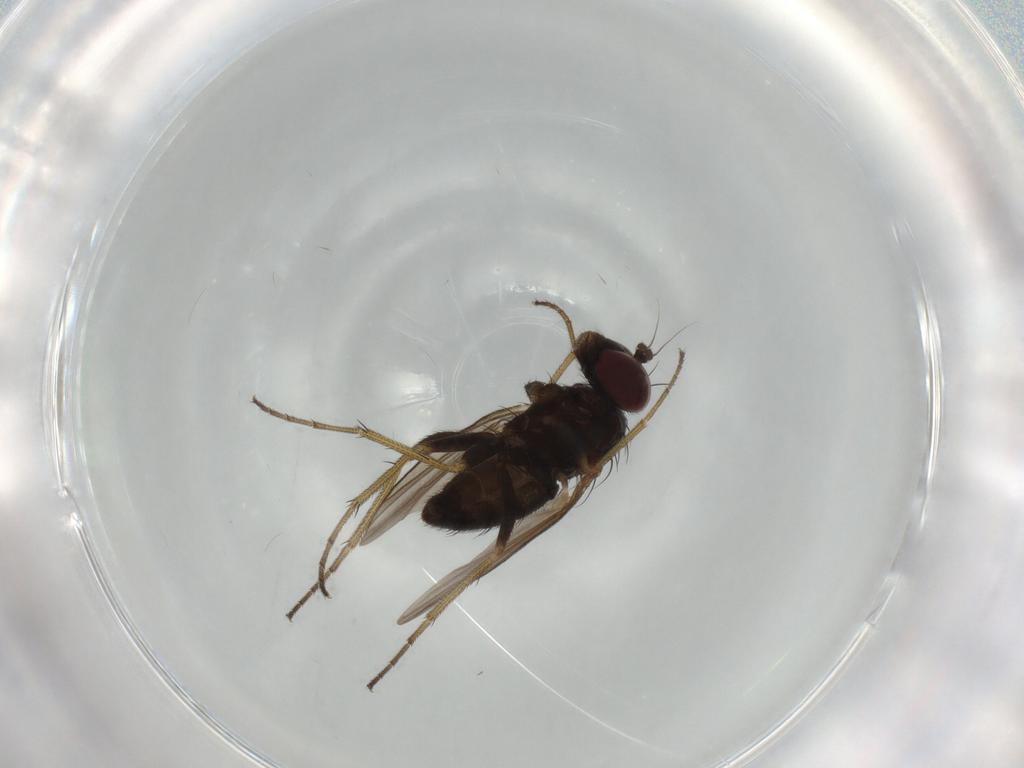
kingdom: Animalia
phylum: Arthropoda
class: Insecta
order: Diptera
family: Dolichopodidae
